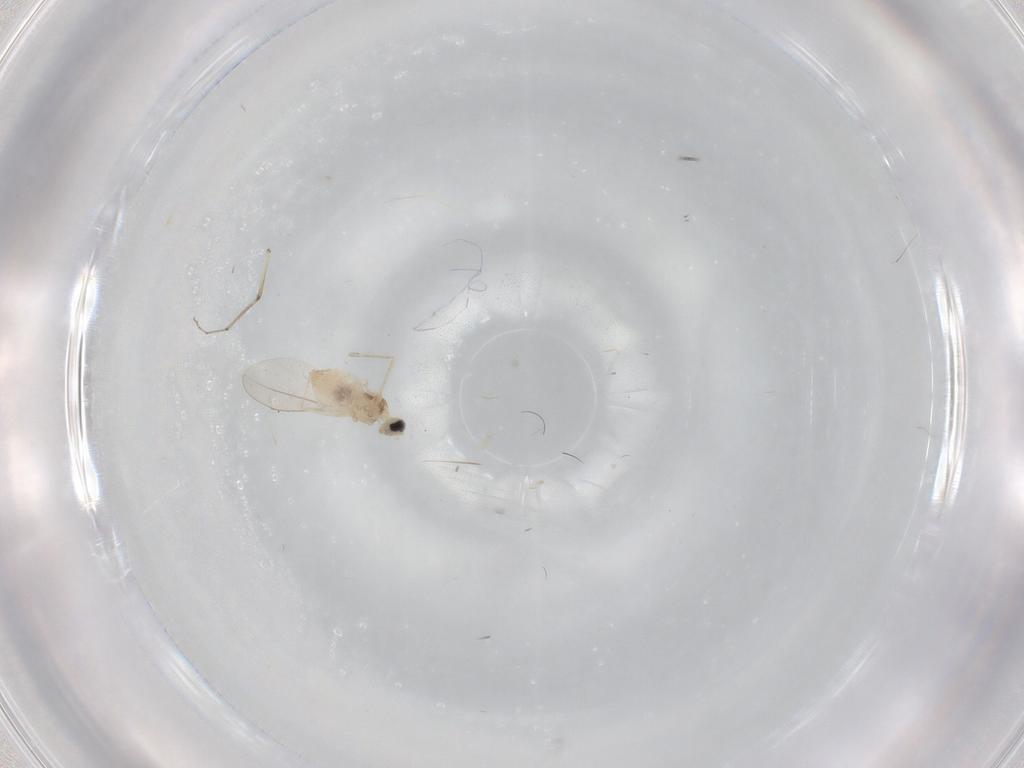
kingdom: Animalia
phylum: Arthropoda
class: Insecta
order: Diptera
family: Cecidomyiidae
